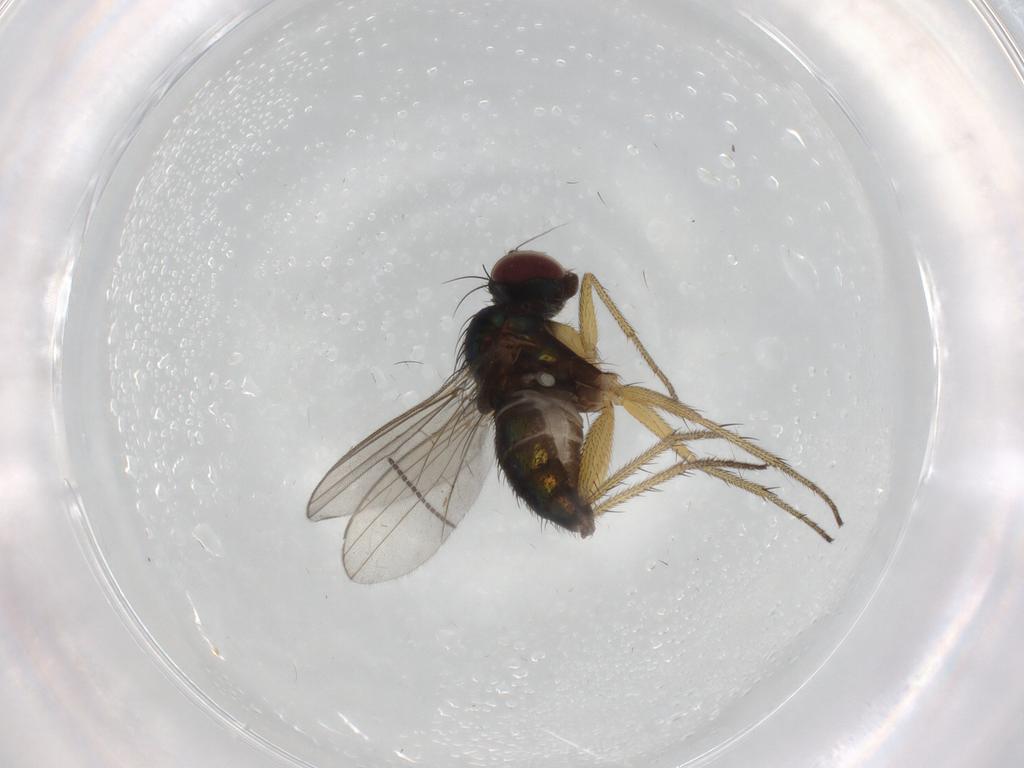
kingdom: Animalia
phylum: Arthropoda
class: Insecta
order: Diptera
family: Dolichopodidae
